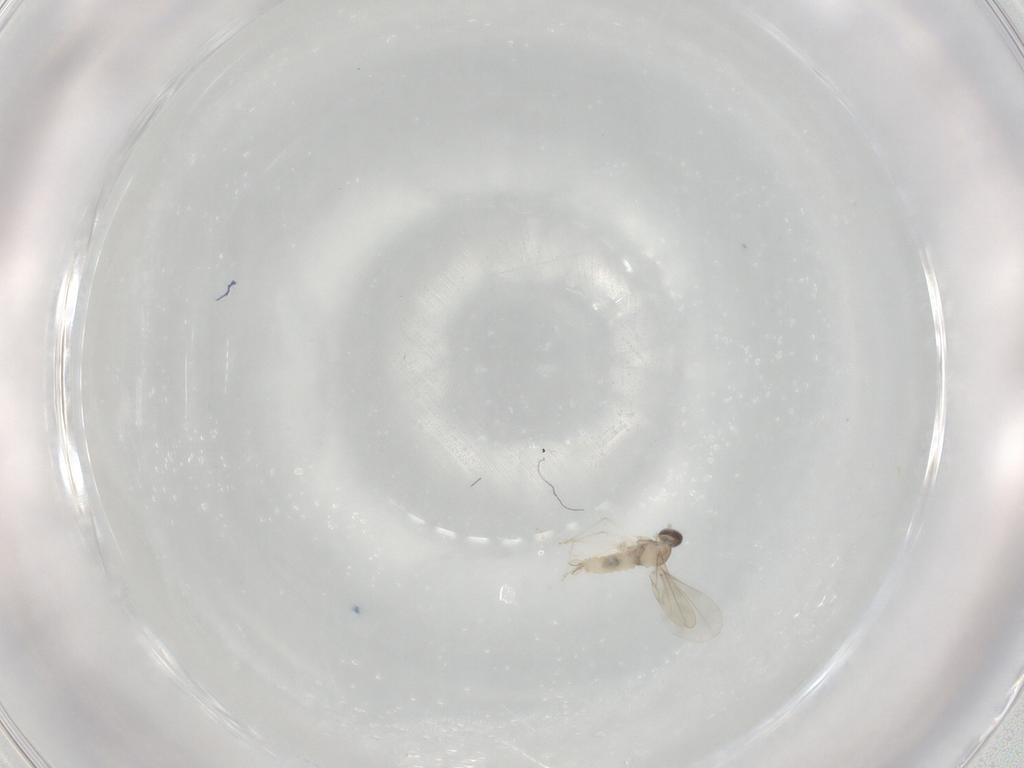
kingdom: Animalia
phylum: Arthropoda
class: Insecta
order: Diptera
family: Cecidomyiidae
